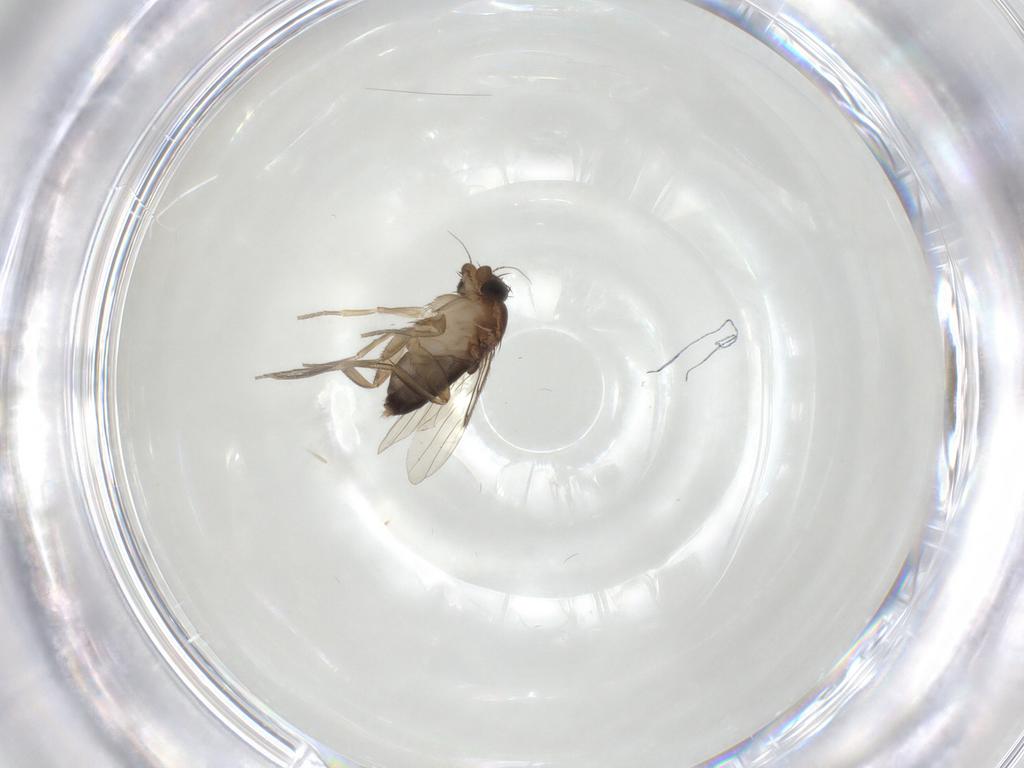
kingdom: Animalia
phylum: Arthropoda
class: Insecta
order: Diptera
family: Phoridae
